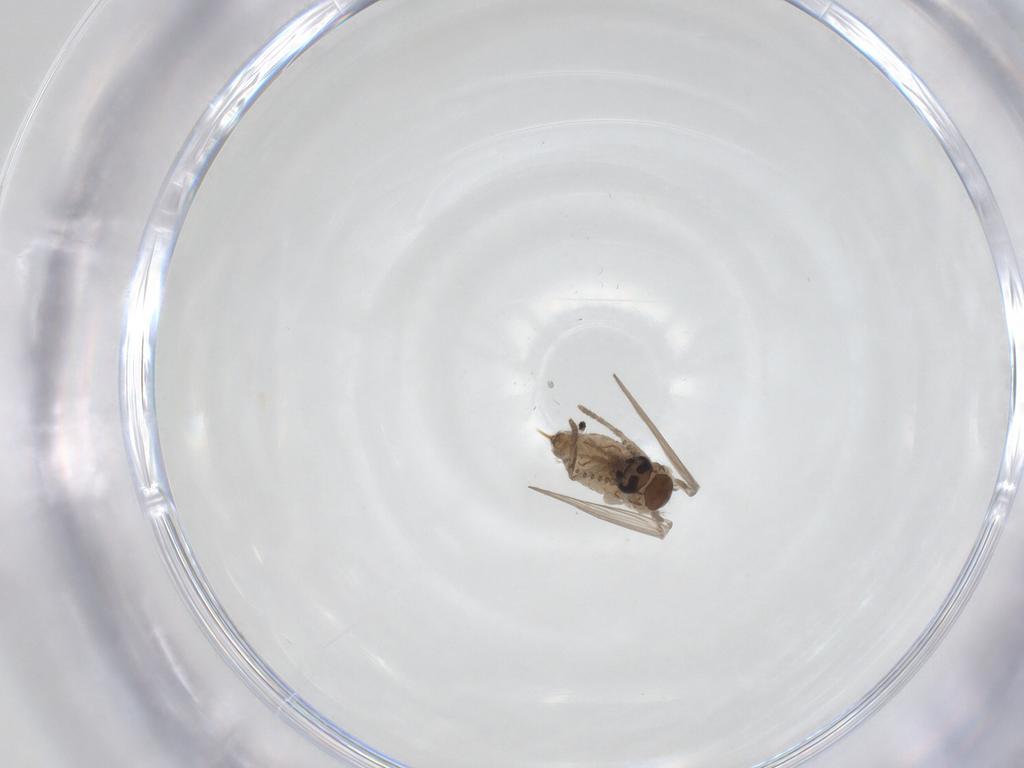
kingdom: Animalia
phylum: Arthropoda
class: Insecta
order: Diptera
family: Psychodidae
